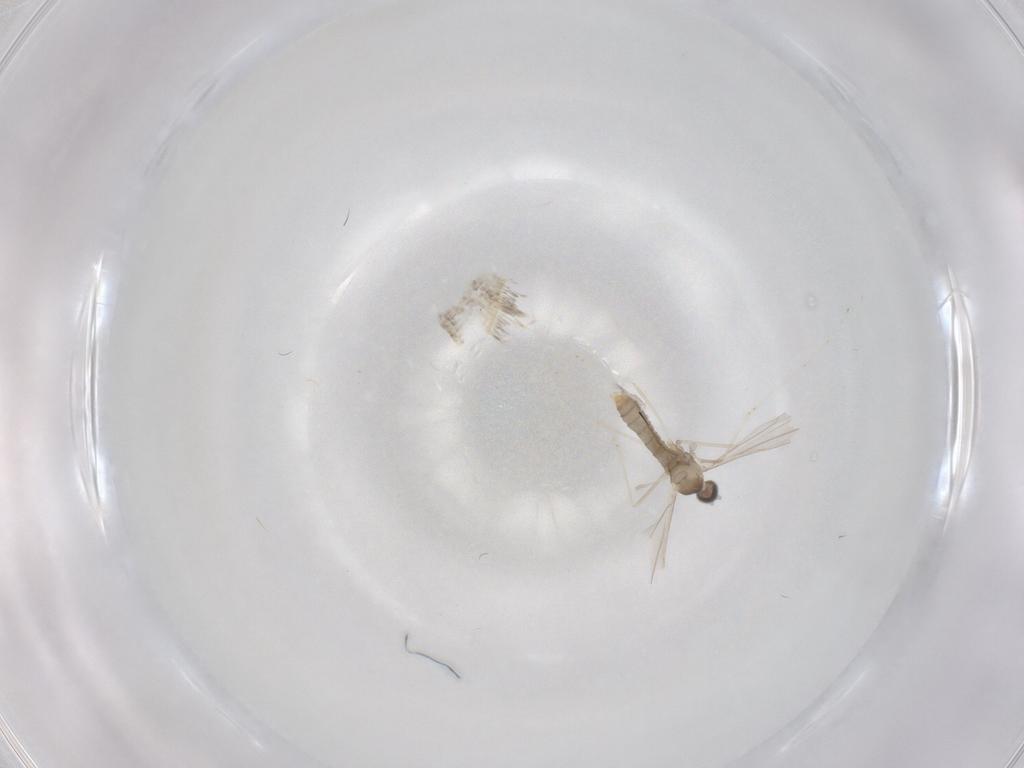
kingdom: Animalia
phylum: Arthropoda
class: Insecta
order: Diptera
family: Cecidomyiidae
